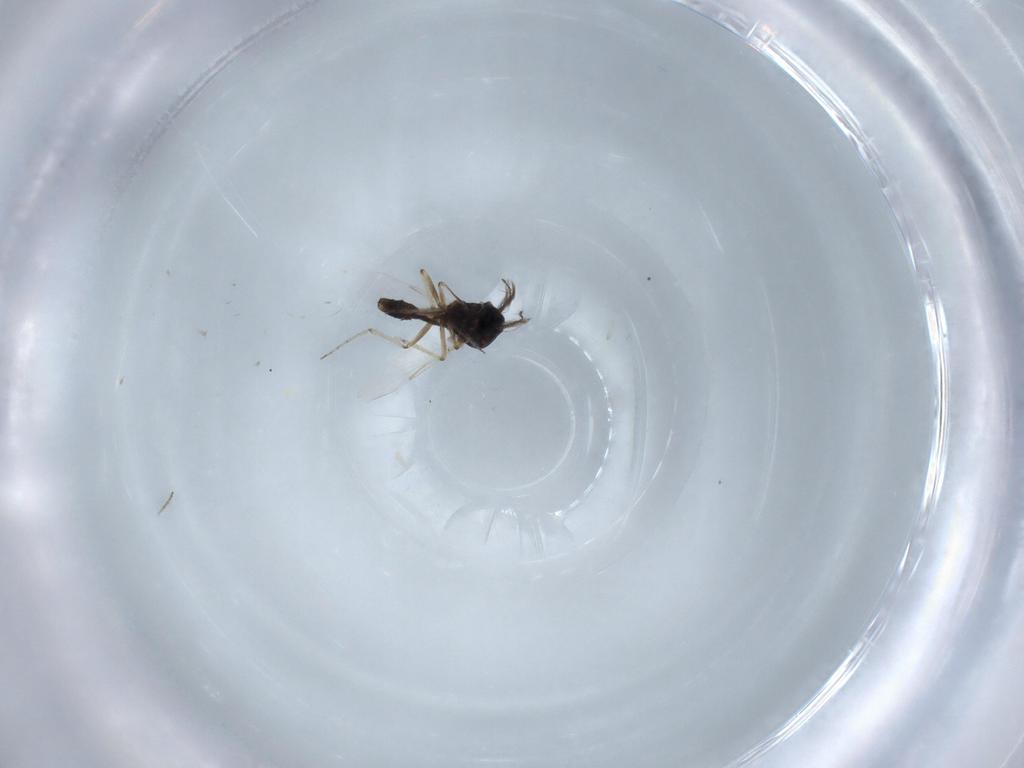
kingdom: Animalia
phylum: Arthropoda
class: Insecta
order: Diptera
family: Ceratopogonidae
